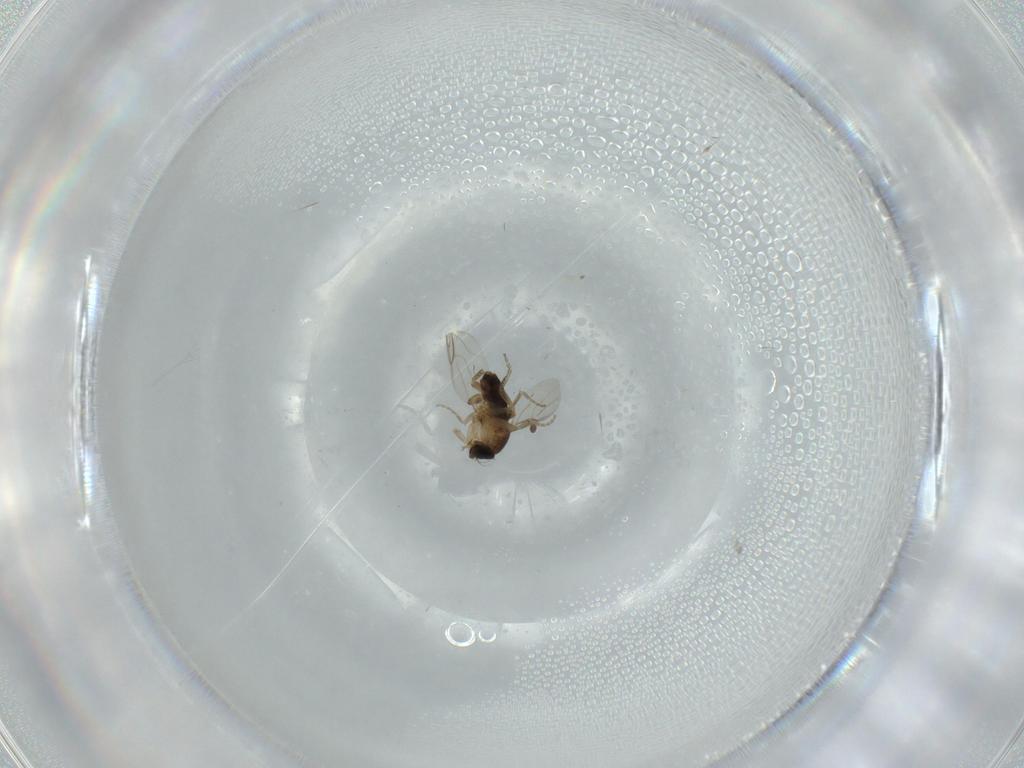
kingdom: Animalia
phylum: Arthropoda
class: Insecta
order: Diptera
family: Phoridae
